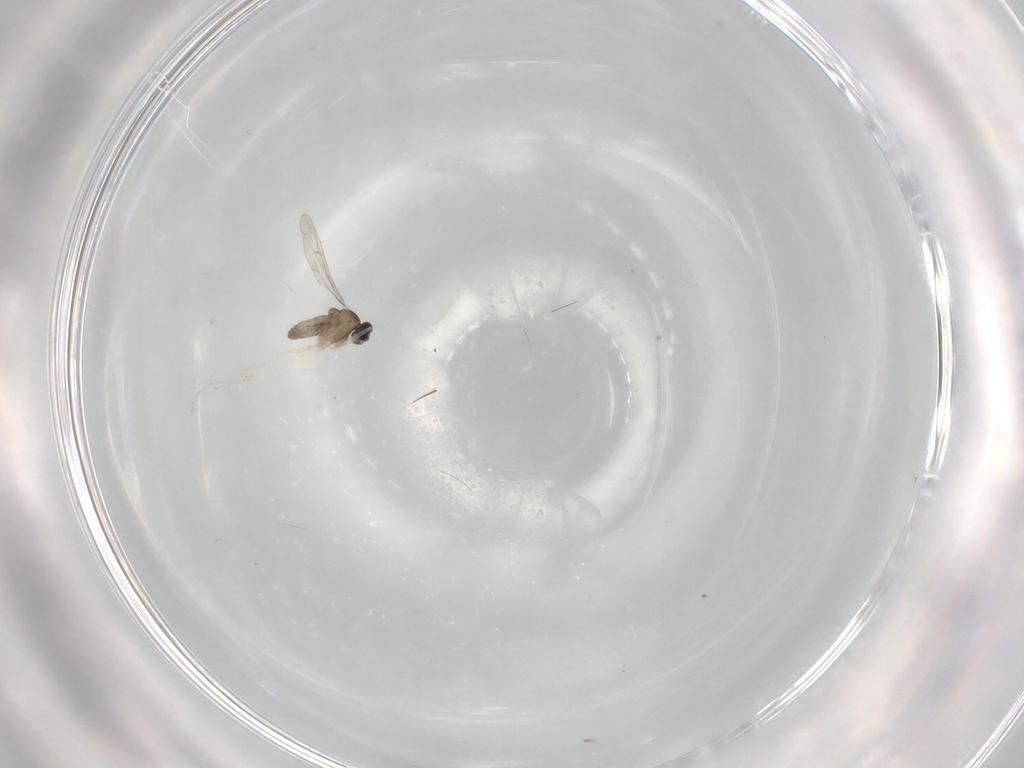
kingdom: Animalia
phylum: Arthropoda
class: Insecta
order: Diptera
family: Cecidomyiidae
